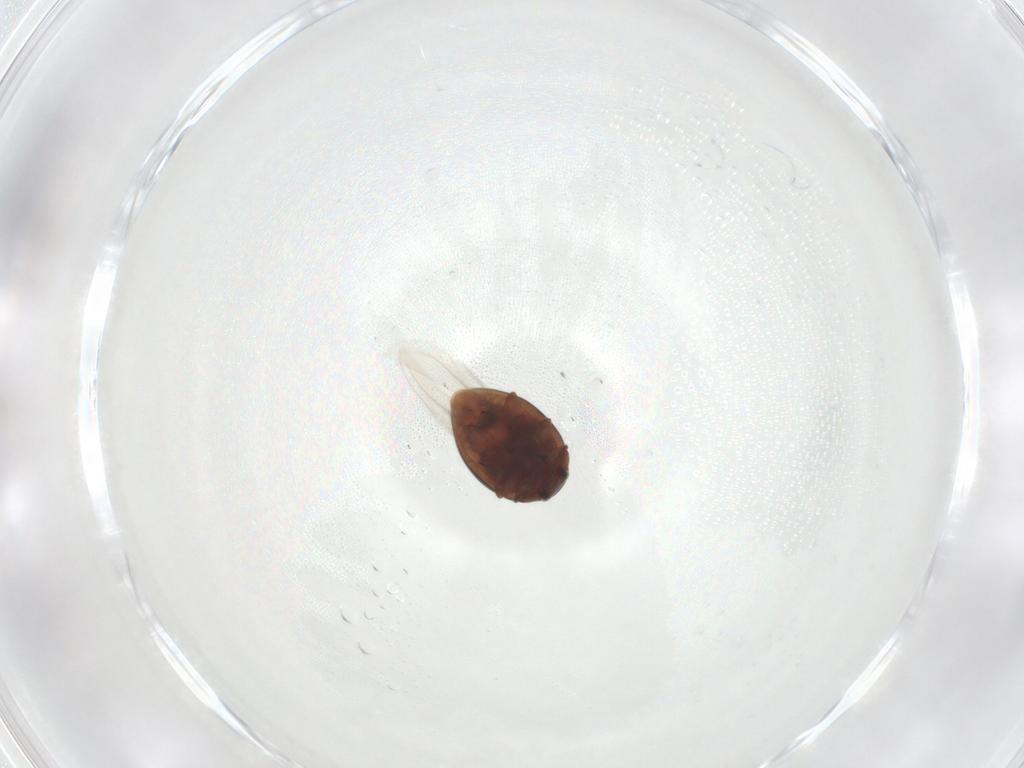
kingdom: Animalia
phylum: Arthropoda
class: Insecta
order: Coleoptera
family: Coccinellidae
